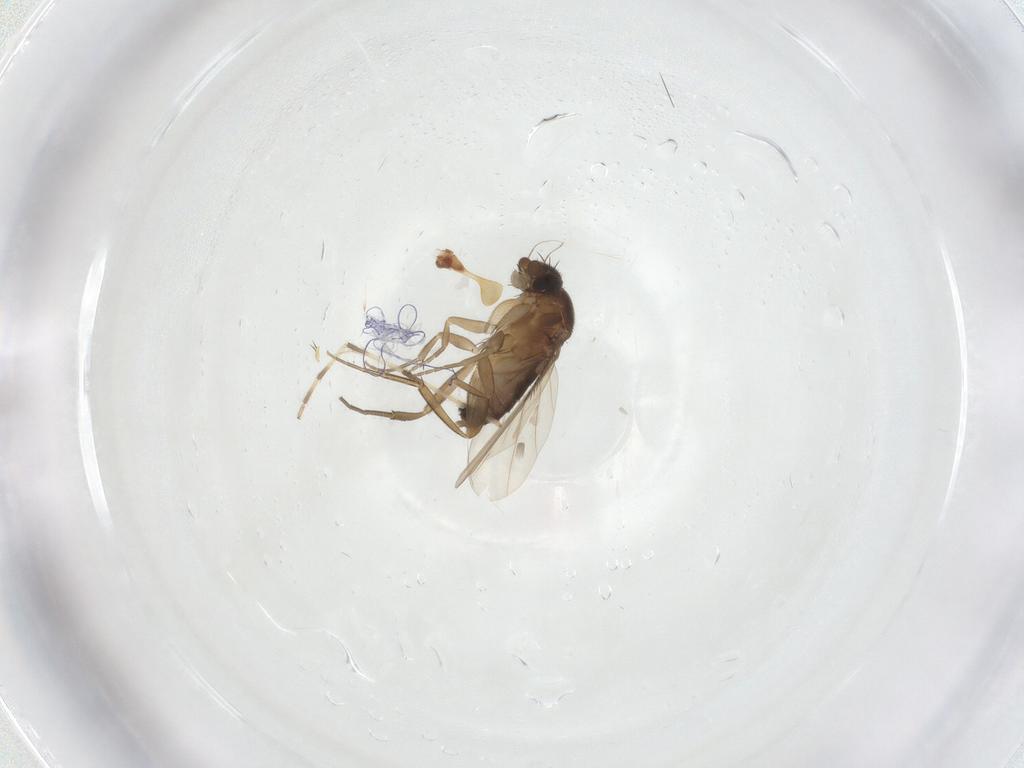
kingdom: Animalia
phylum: Arthropoda
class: Insecta
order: Diptera
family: Phoridae
